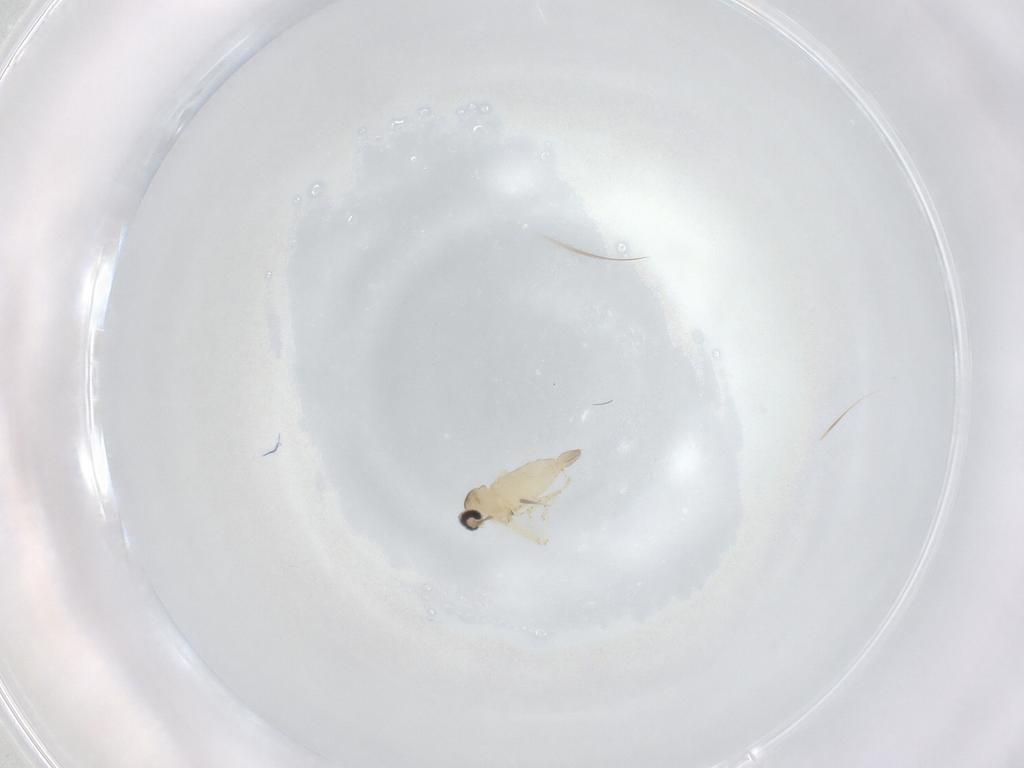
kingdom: Animalia
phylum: Arthropoda
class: Insecta
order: Diptera
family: Cecidomyiidae
